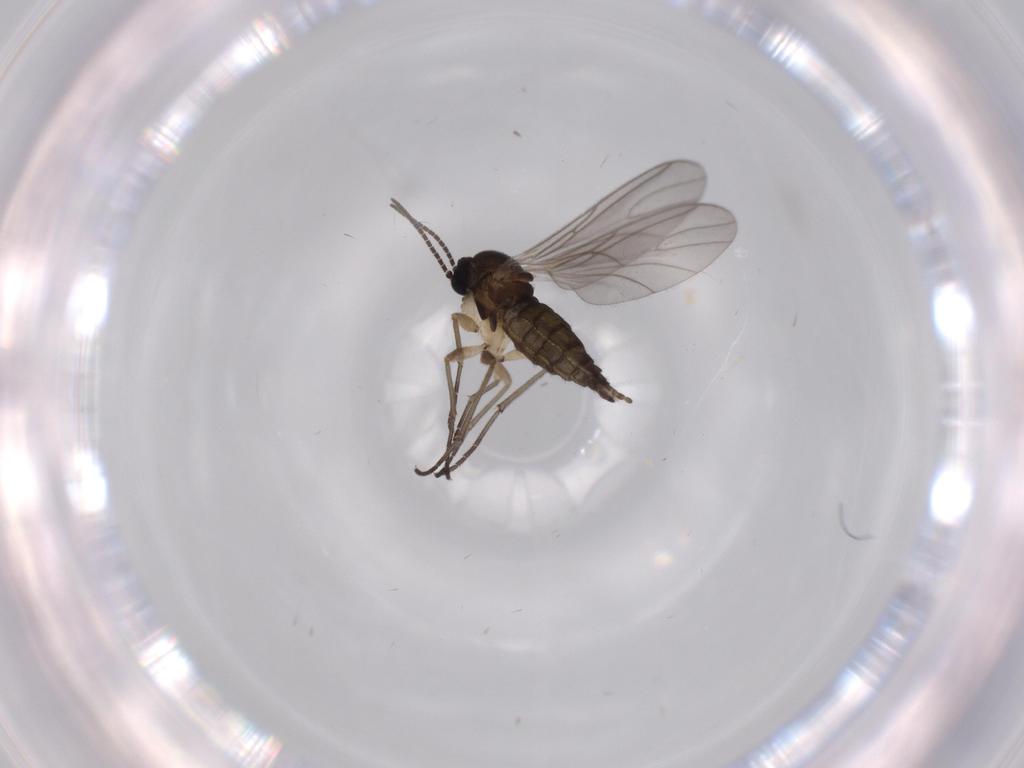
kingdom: Animalia
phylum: Arthropoda
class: Insecta
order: Diptera
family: Sciaridae
